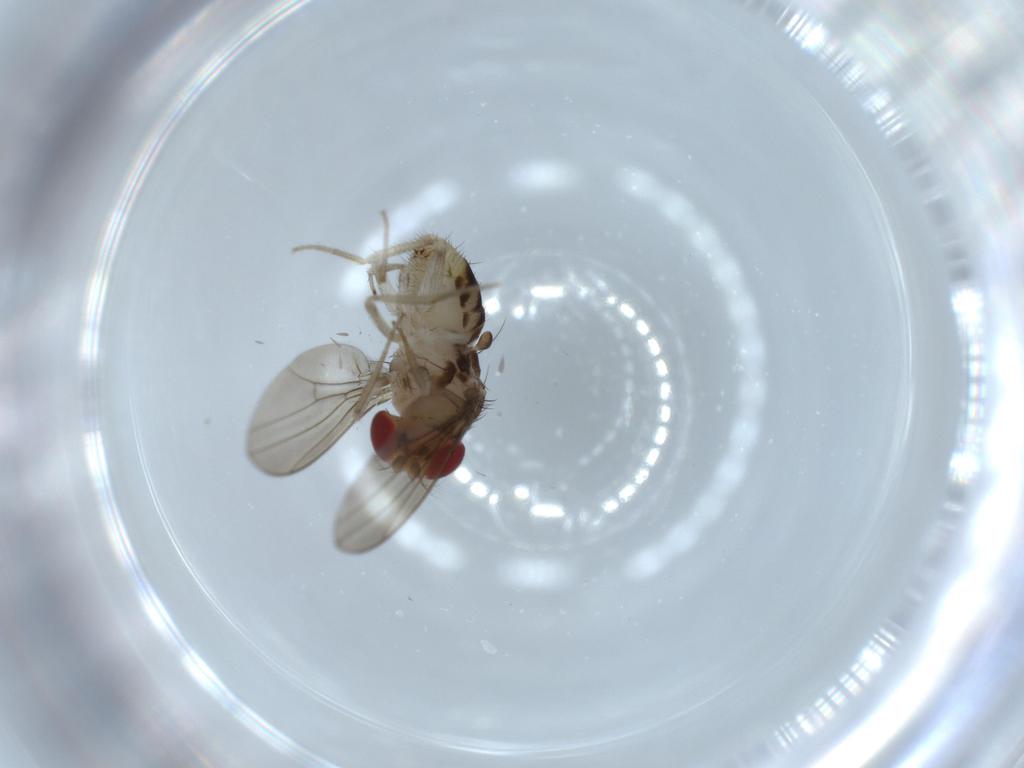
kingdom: Animalia
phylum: Arthropoda
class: Insecta
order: Diptera
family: Drosophilidae
